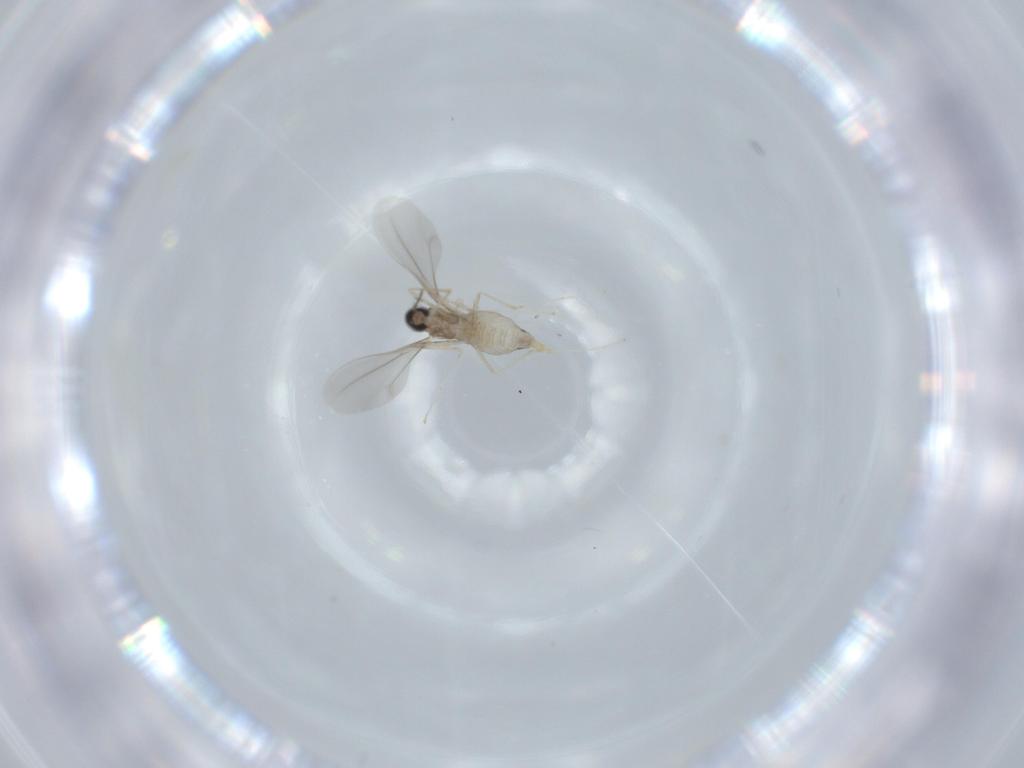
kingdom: Animalia
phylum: Arthropoda
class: Insecta
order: Diptera
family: Cecidomyiidae
